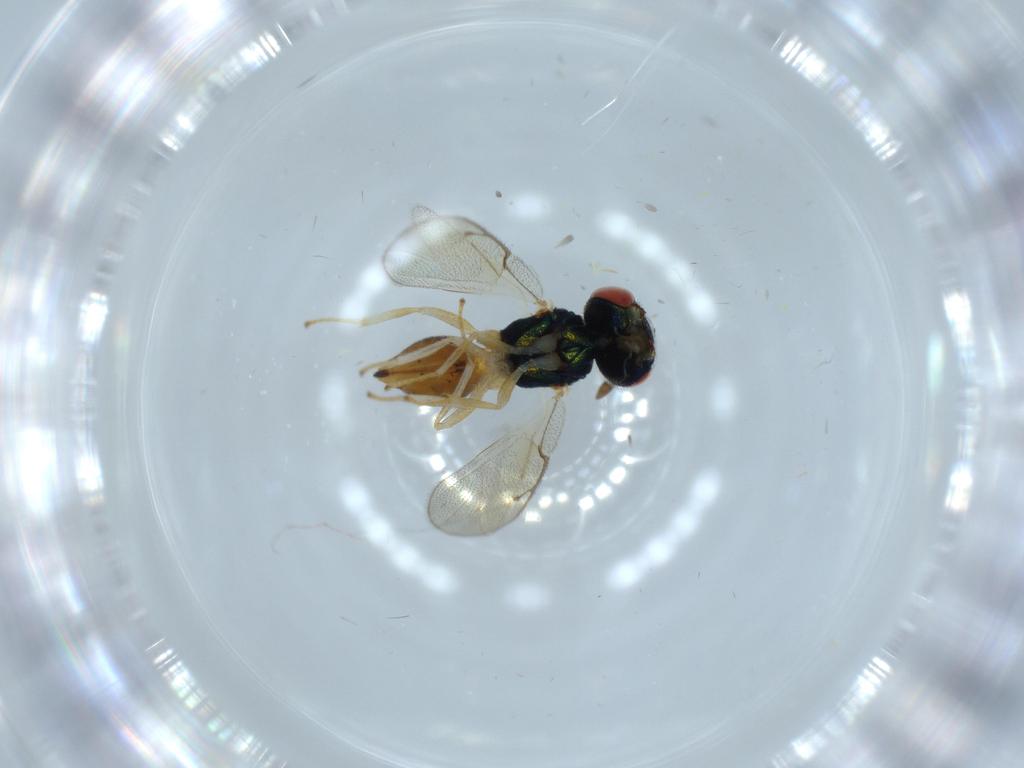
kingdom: Animalia
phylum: Arthropoda
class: Insecta
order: Hymenoptera
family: Pteromalidae
